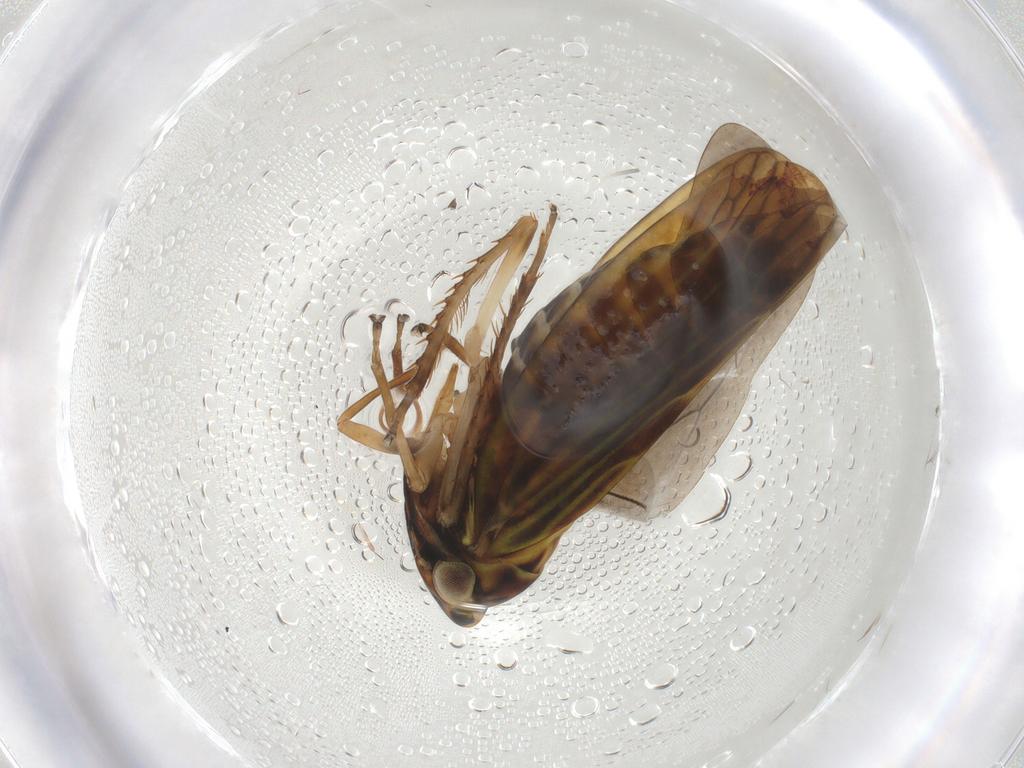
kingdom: Animalia
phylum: Arthropoda
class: Insecta
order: Hemiptera
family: Cicadellidae
